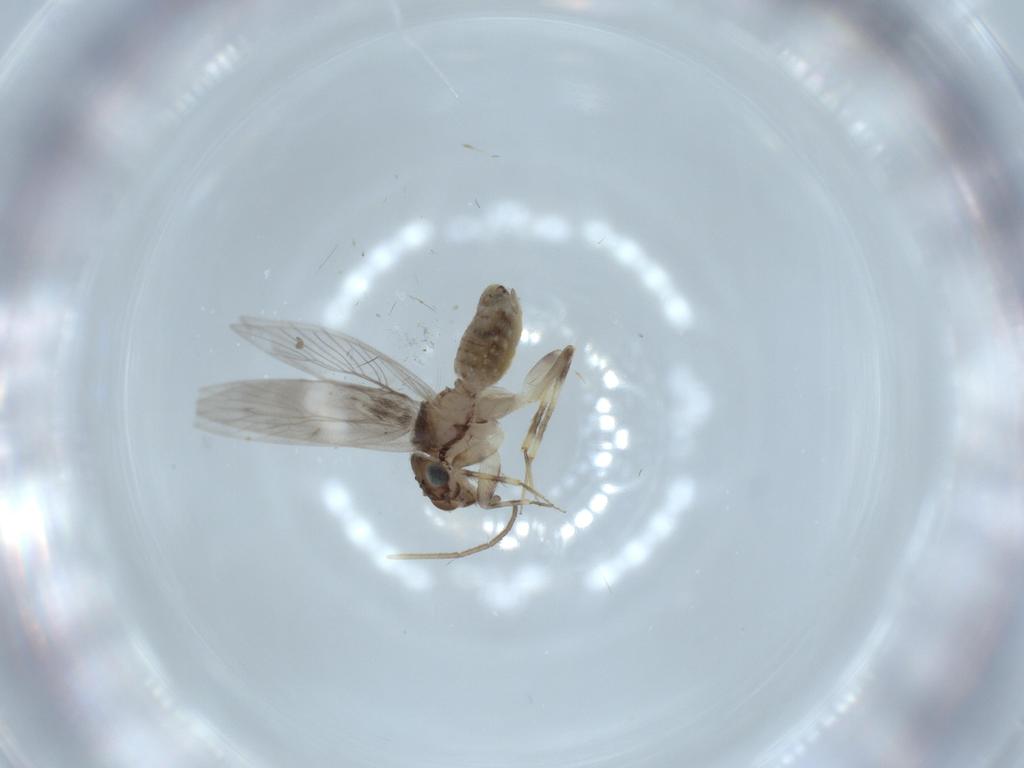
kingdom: Animalia
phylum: Arthropoda
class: Insecta
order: Psocodea
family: Lepidopsocidae
